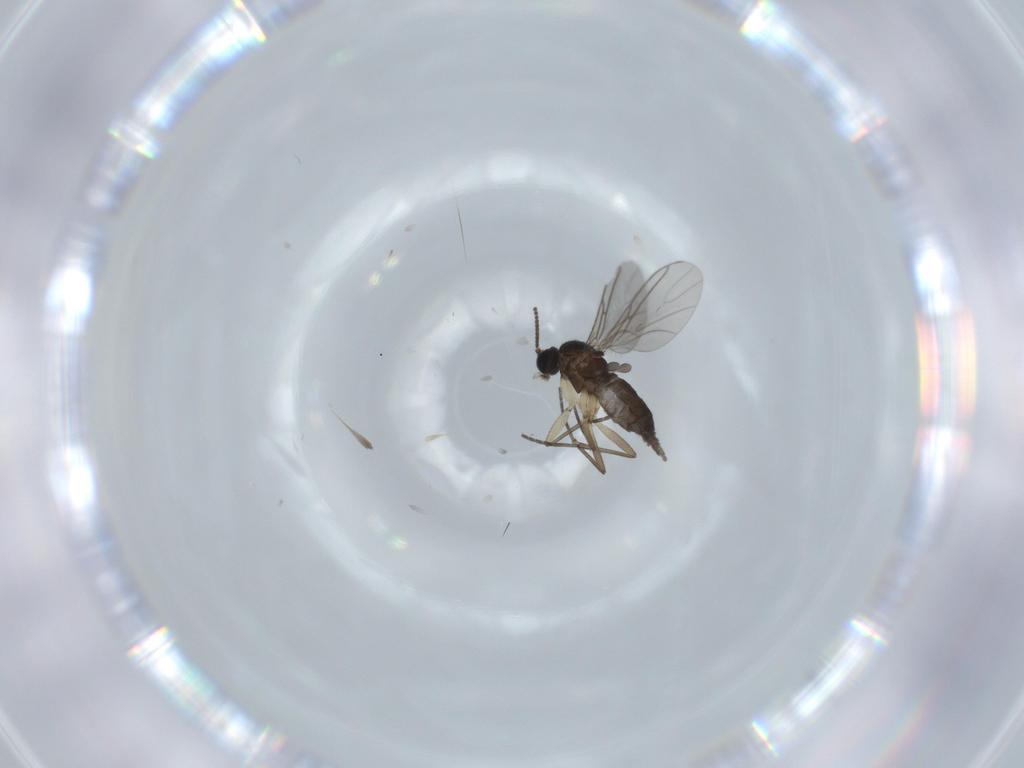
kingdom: Animalia
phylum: Arthropoda
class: Insecta
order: Diptera
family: Sciaridae
